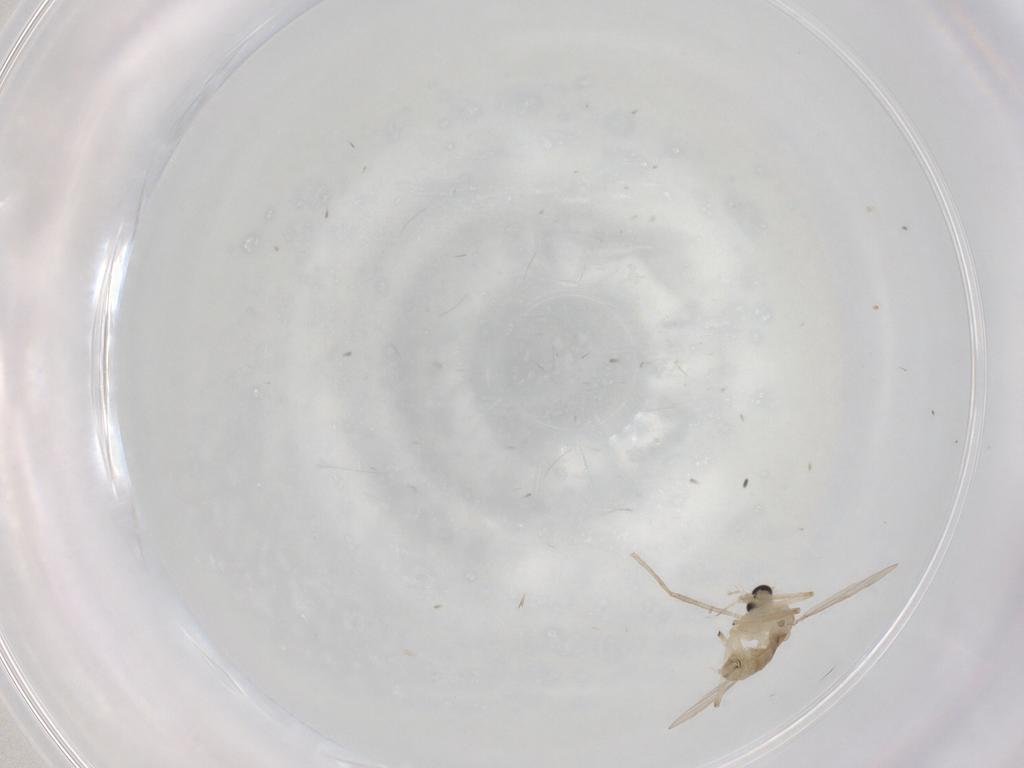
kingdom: Animalia
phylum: Arthropoda
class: Insecta
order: Diptera
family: Chironomidae
